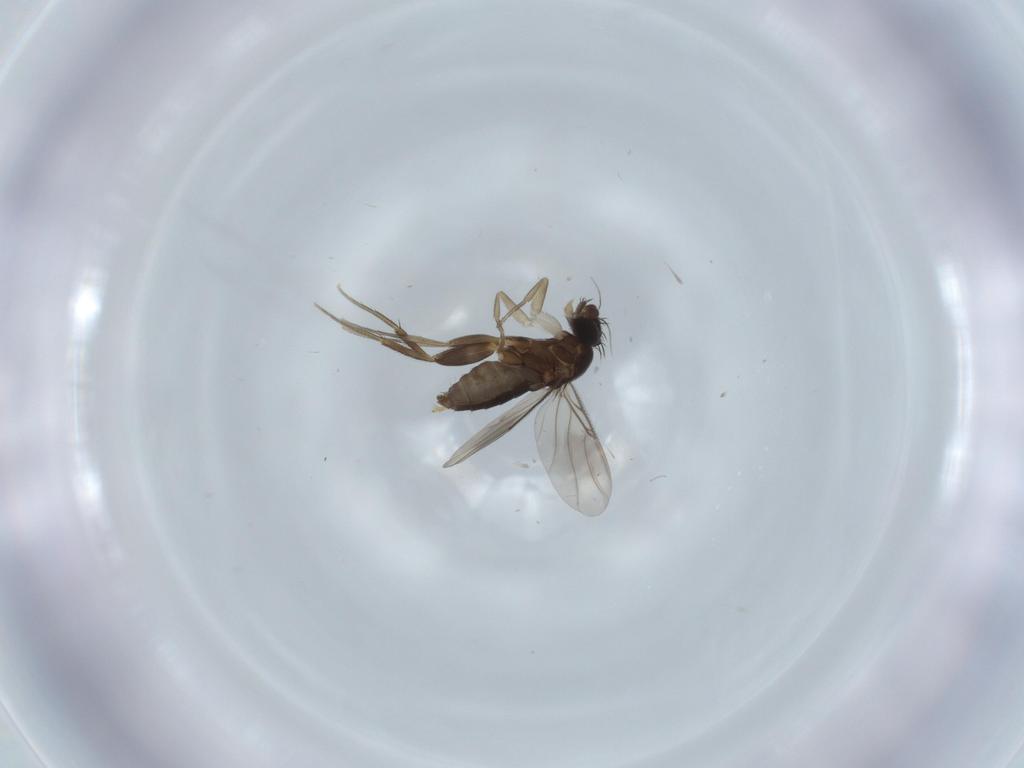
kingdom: Animalia
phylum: Arthropoda
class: Insecta
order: Diptera
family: Phoridae
